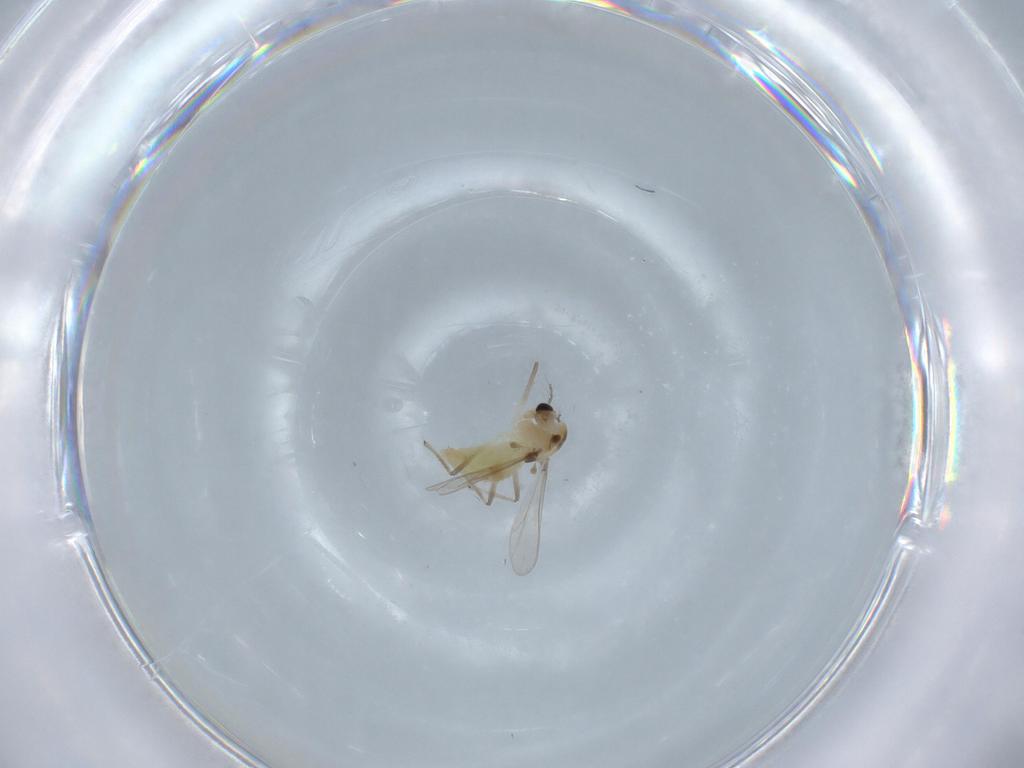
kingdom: Animalia
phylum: Arthropoda
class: Insecta
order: Diptera
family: Chironomidae
